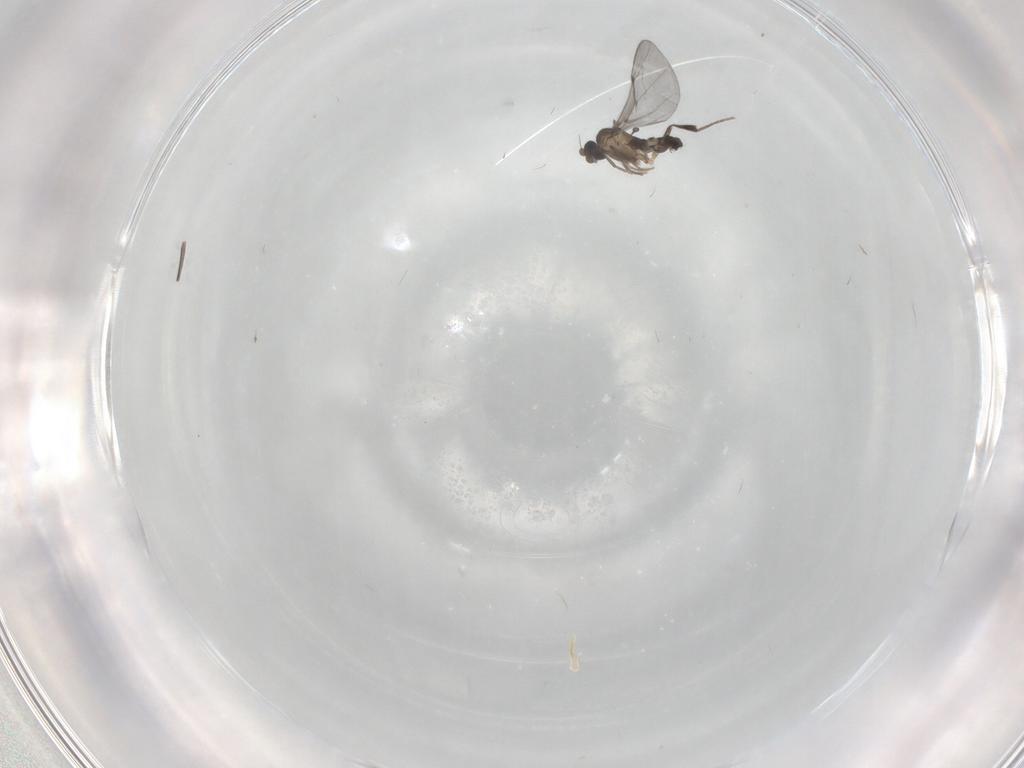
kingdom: Animalia
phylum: Arthropoda
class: Insecta
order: Diptera
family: Phoridae
